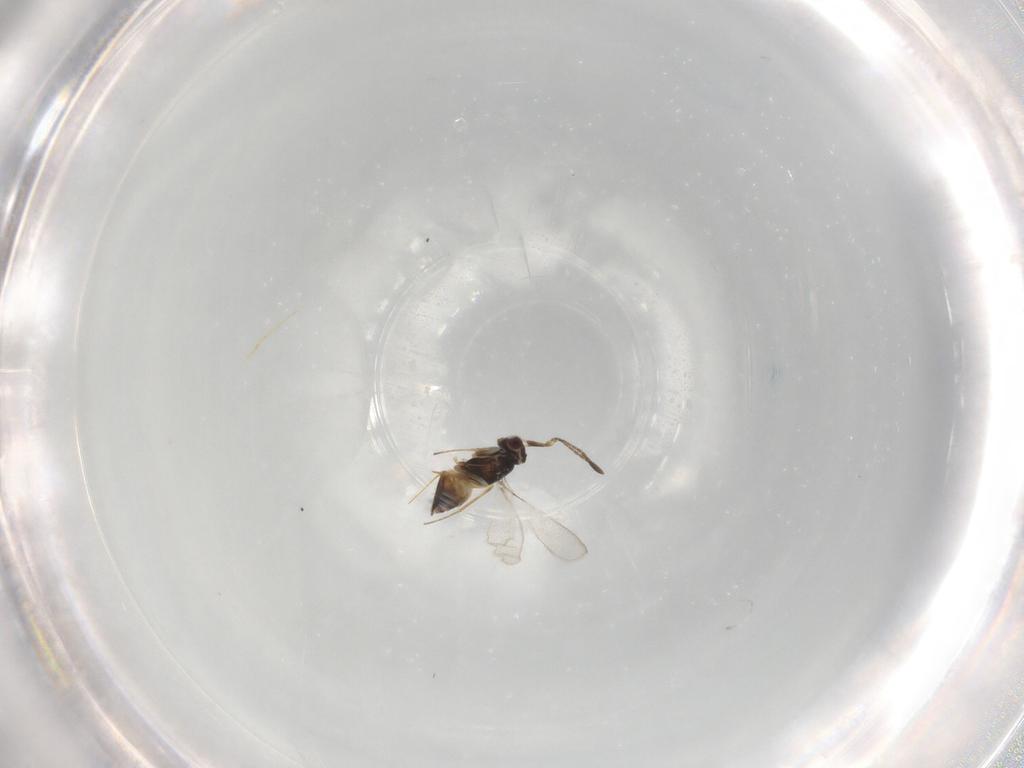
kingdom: Animalia
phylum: Arthropoda
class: Insecta
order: Hymenoptera
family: Mymaridae
